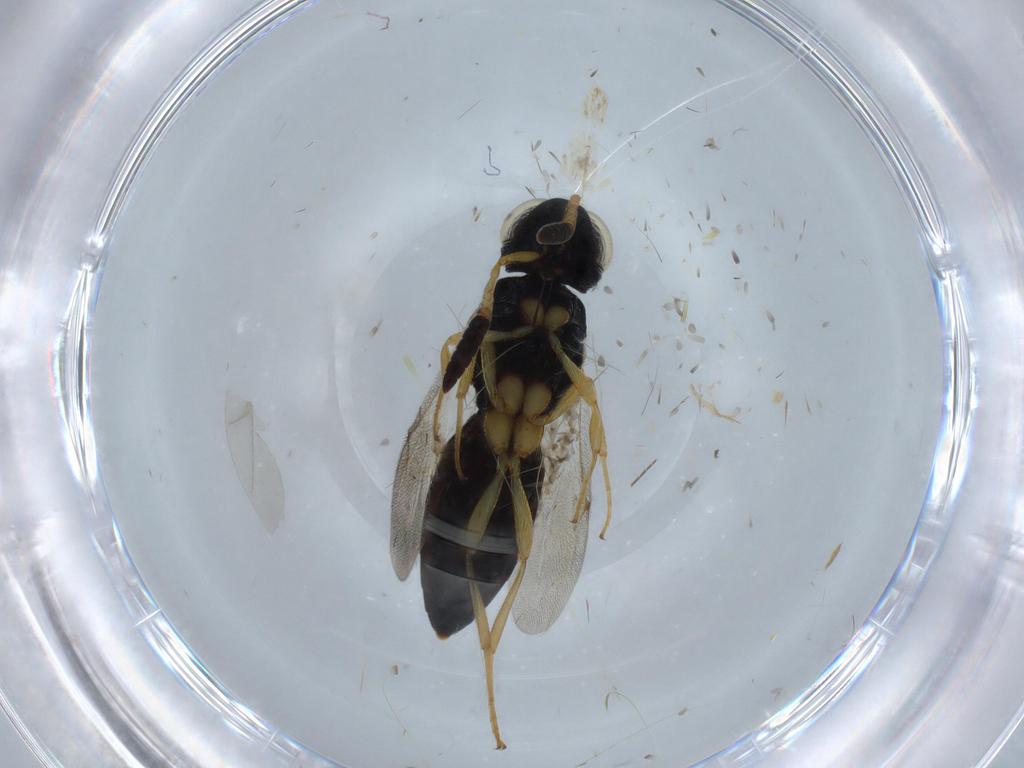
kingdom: Animalia
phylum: Arthropoda
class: Insecta
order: Hymenoptera
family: Scelionidae
